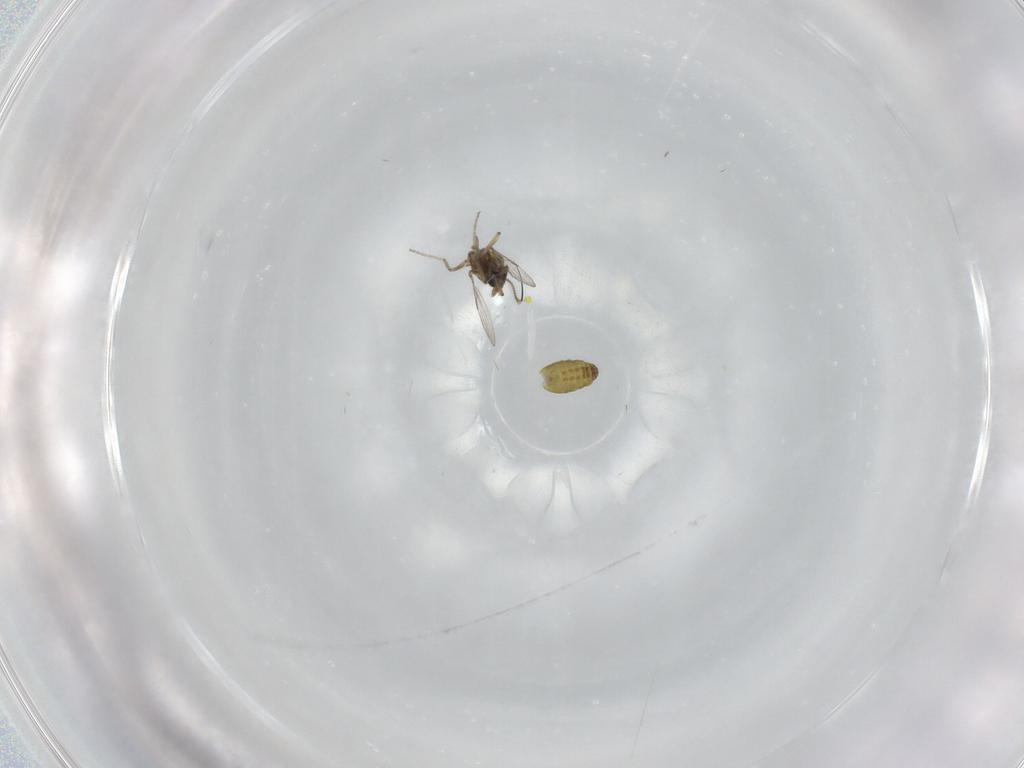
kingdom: Animalia
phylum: Arthropoda
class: Insecta
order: Diptera
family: Ceratopogonidae
